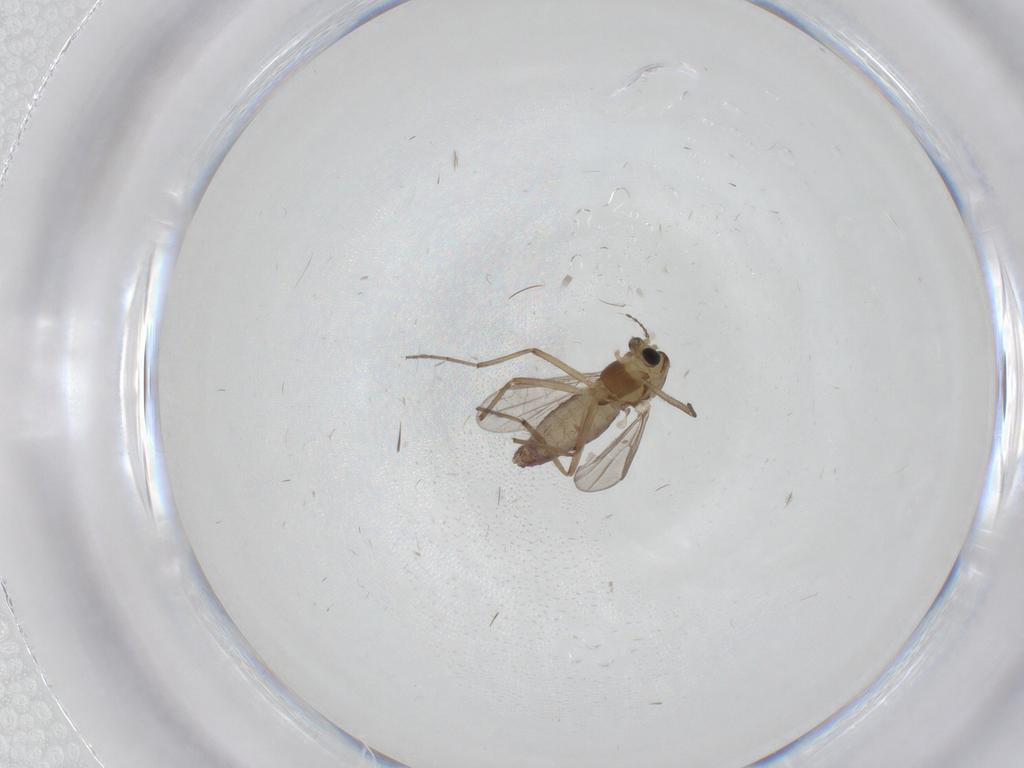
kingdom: Animalia
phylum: Arthropoda
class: Insecta
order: Diptera
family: Chironomidae
